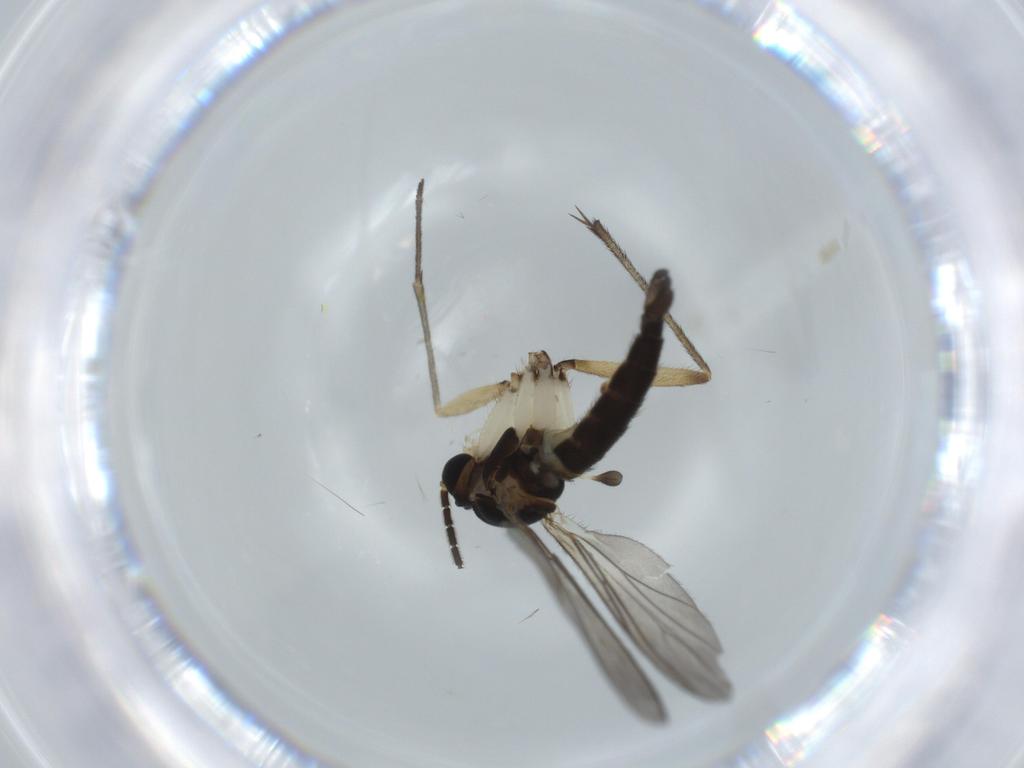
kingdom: Animalia
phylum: Arthropoda
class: Insecta
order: Diptera
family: Sciaridae
